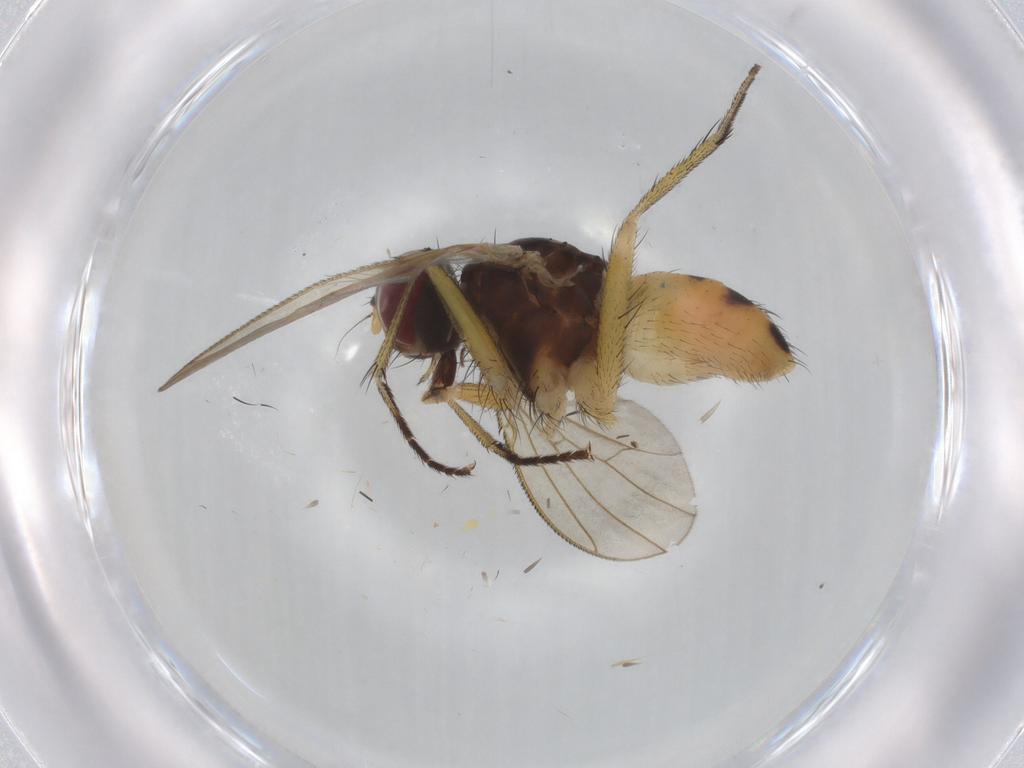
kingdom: Animalia
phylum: Arthropoda
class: Insecta
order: Diptera
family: Muscidae
